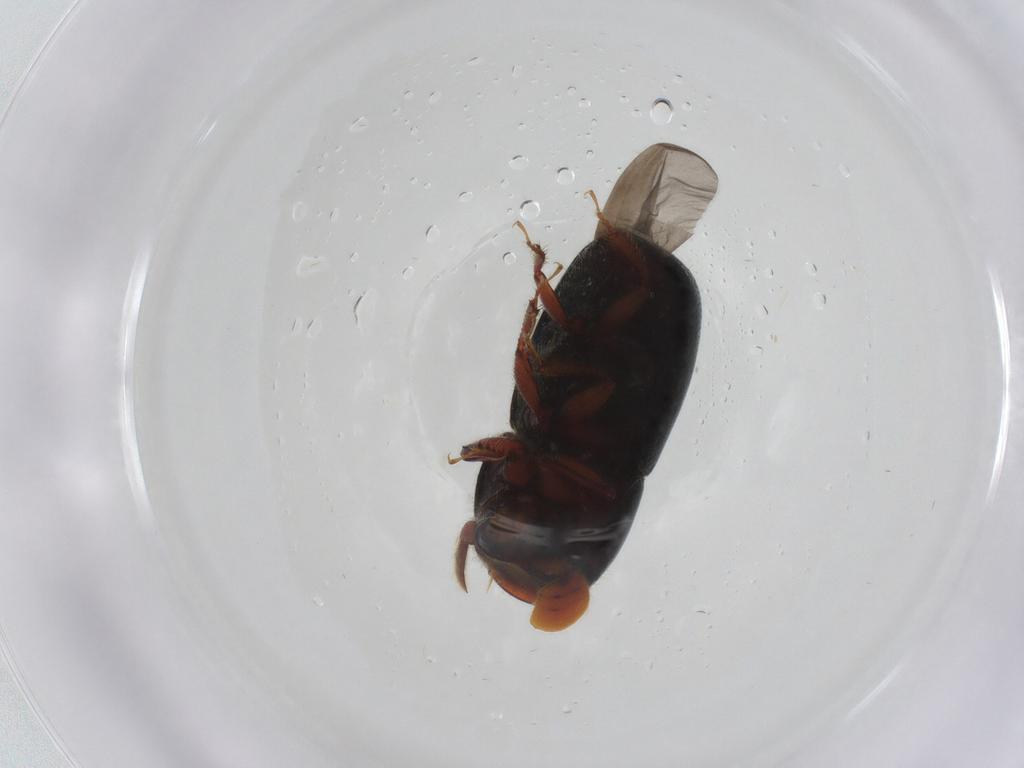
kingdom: Animalia
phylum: Arthropoda
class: Insecta
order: Coleoptera
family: Curculionidae
